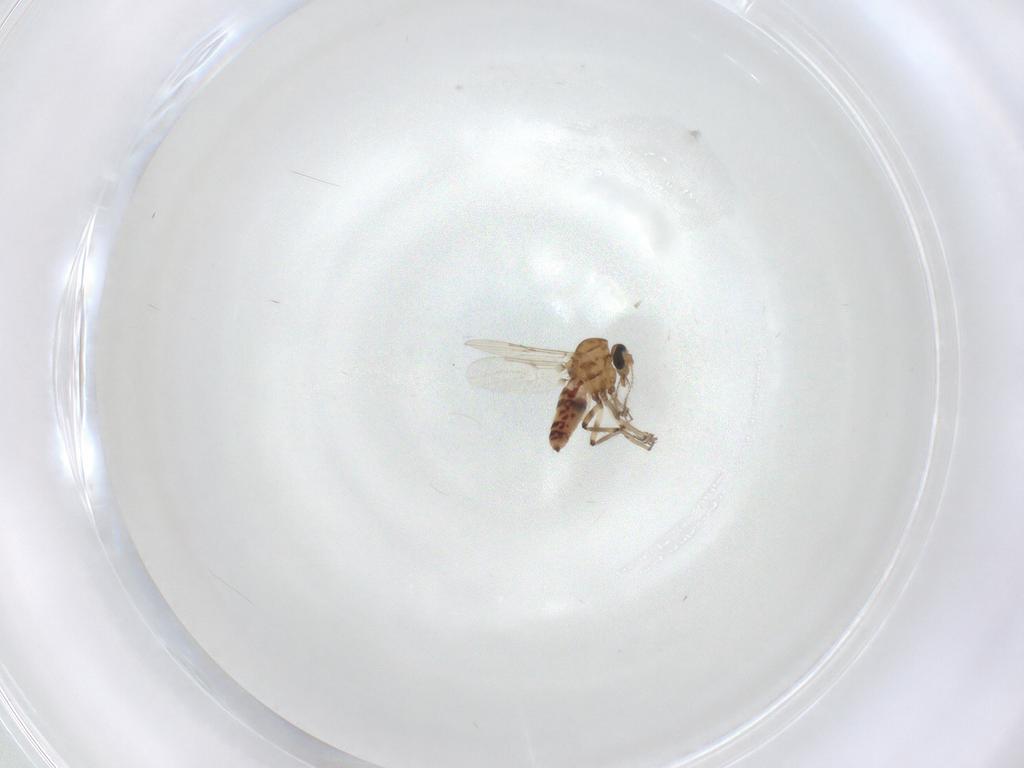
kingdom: Animalia
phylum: Arthropoda
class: Insecta
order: Diptera
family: Ceratopogonidae
